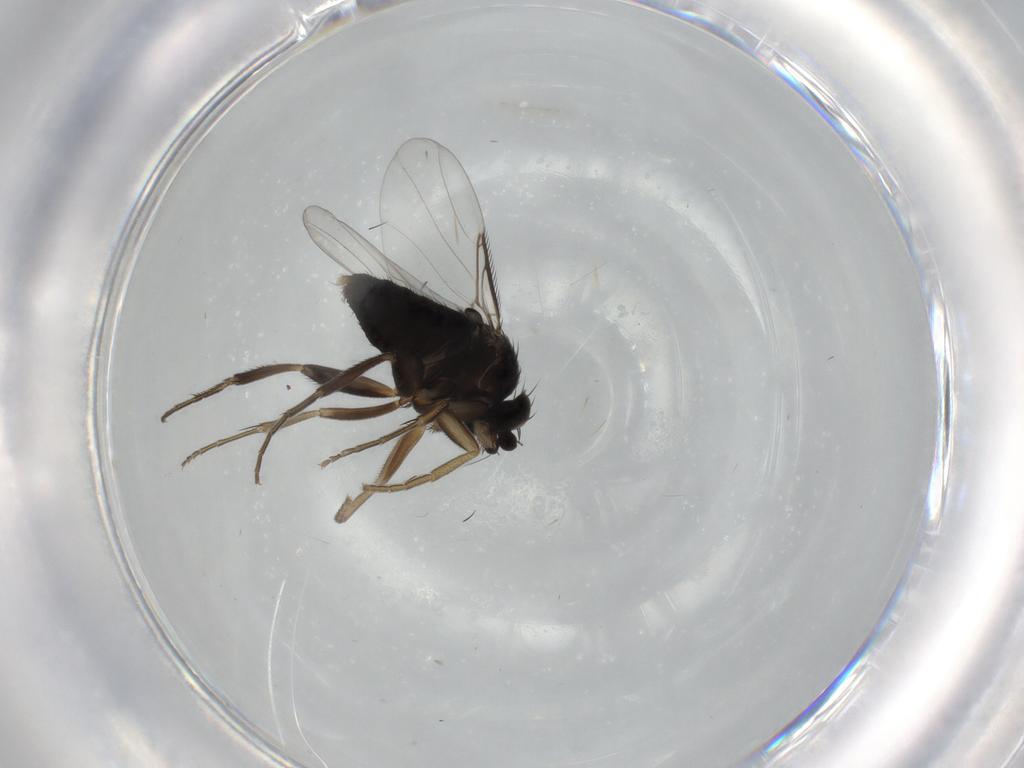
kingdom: Animalia
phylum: Arthropoda
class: Insecta
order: Diptera
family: Phoridae
